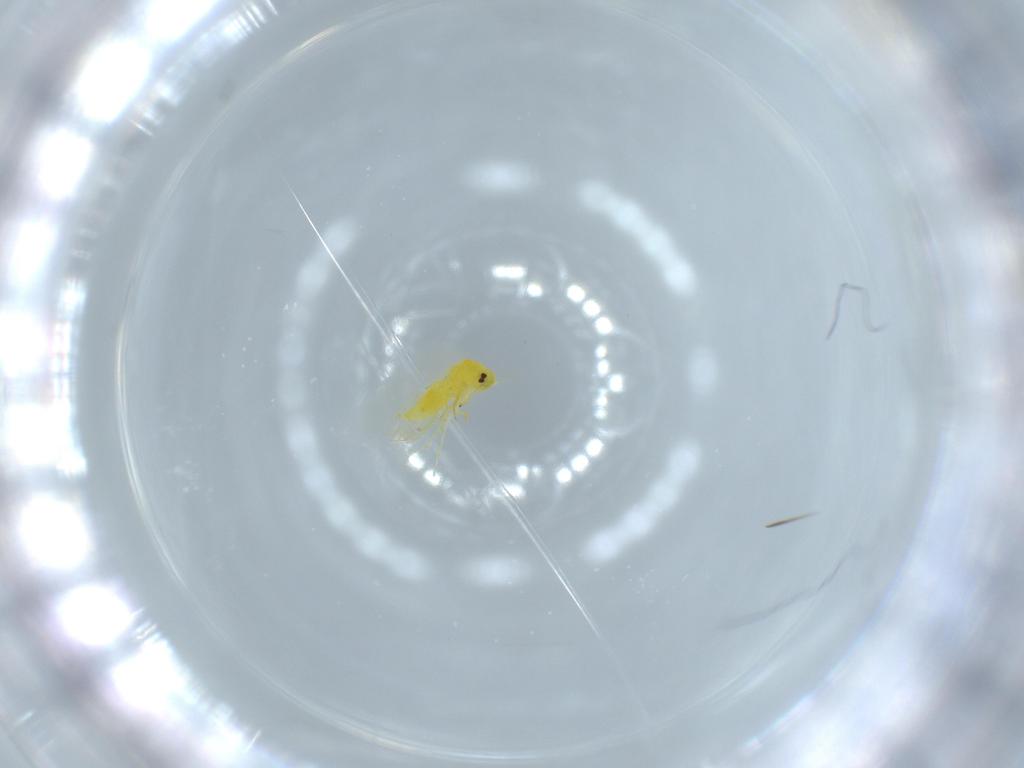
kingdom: Animalia
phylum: Arthropoda
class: Insecta
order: Hemiptera
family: Aleyrodidae
